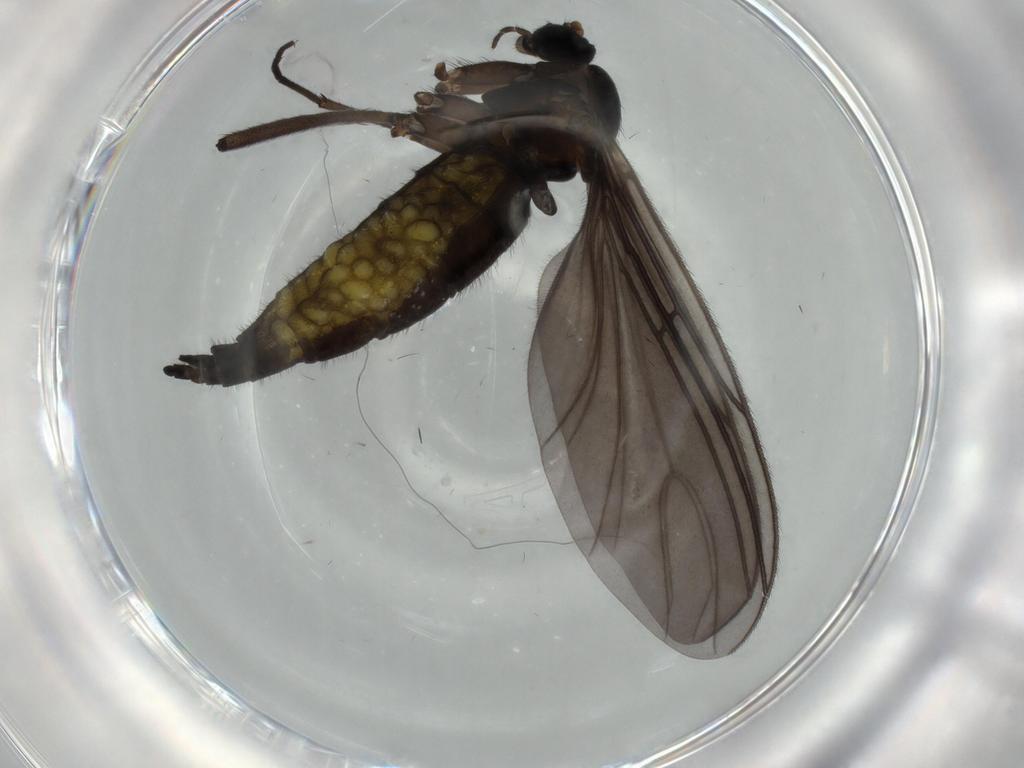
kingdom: Animalia
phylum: Arthropoda
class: Insecta
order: Diptera
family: Sciaridae
